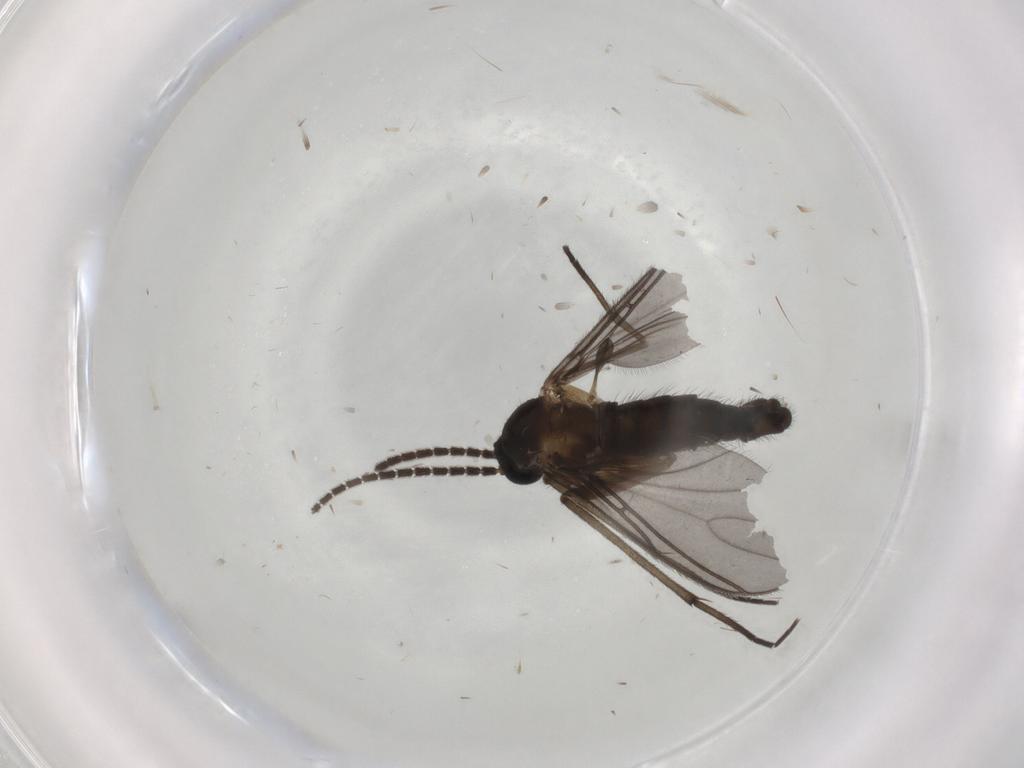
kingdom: Animalia
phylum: Arthropoda
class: Insecta
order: Diptera
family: Sciaridae
